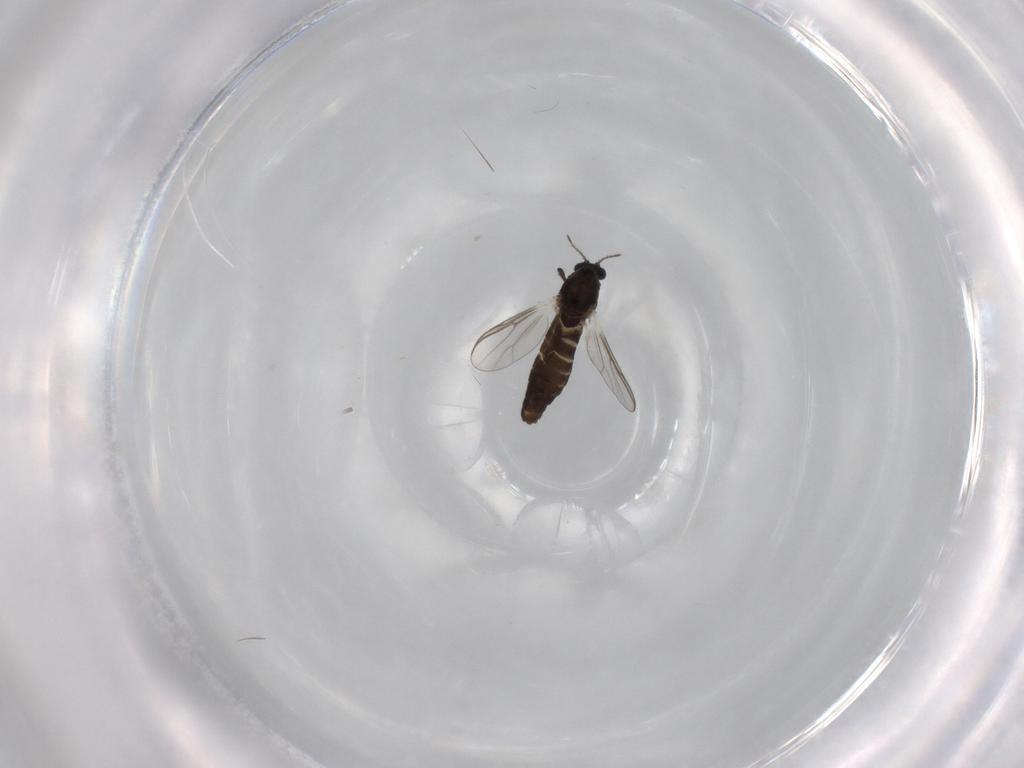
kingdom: Animalia
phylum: Arthropoda
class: Insecta
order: Diptera
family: Chironomidae
